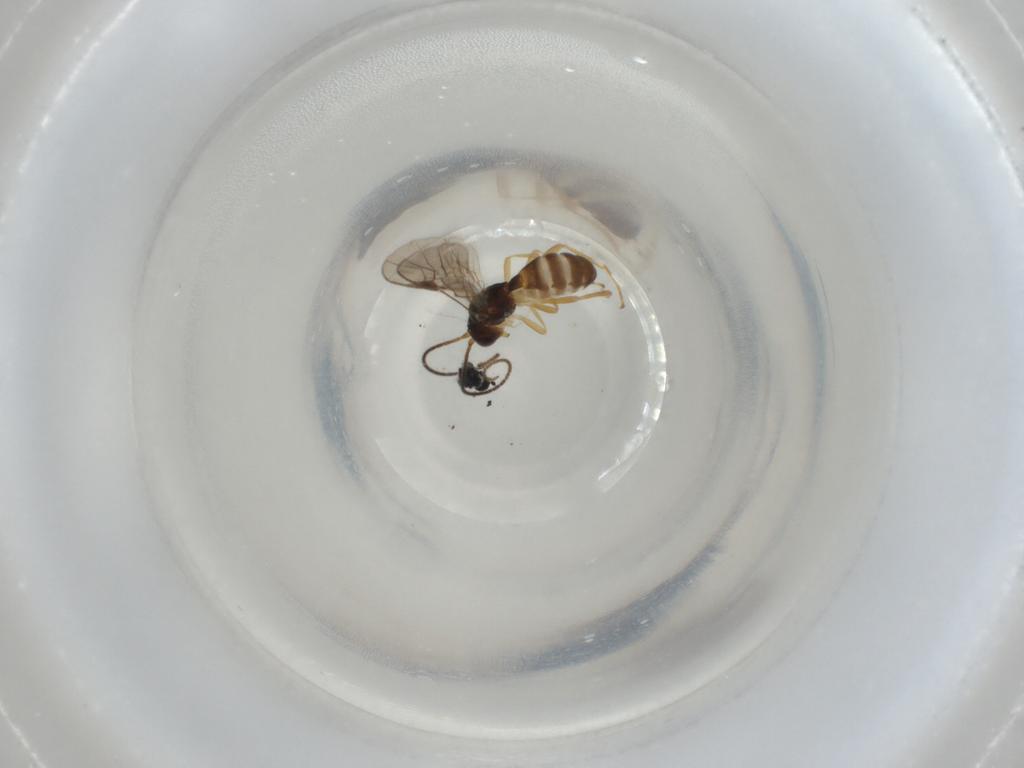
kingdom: Animalia
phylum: Arthropoda
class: Insecta
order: Hymenoptera
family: Braconidae
